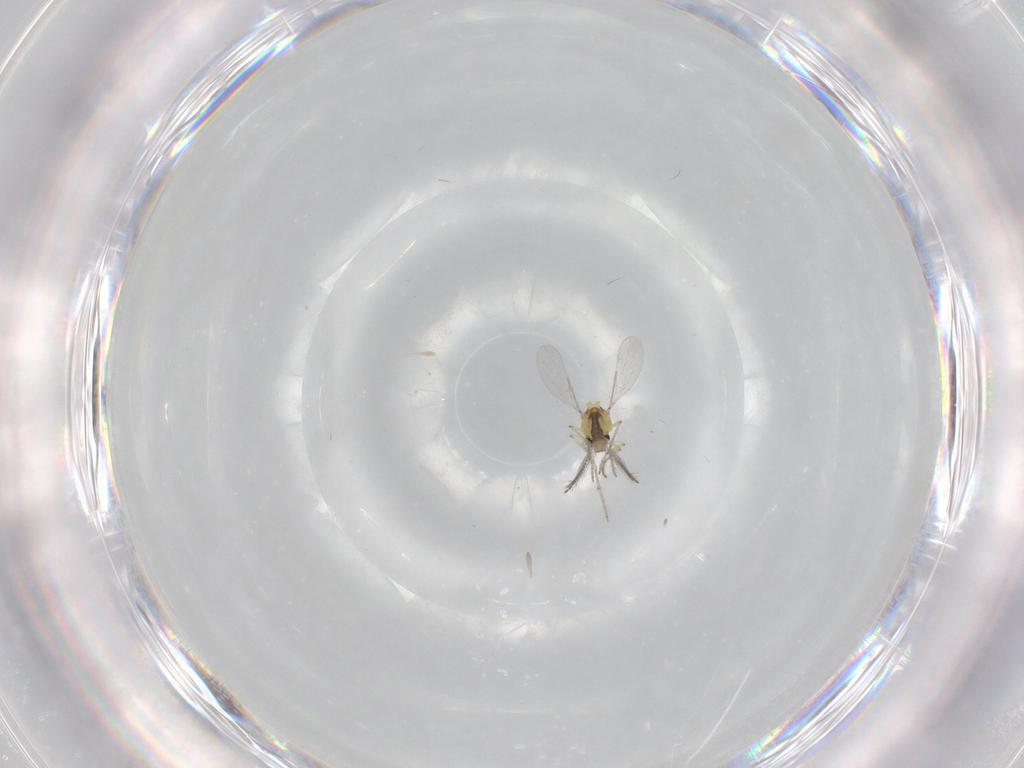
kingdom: Animalia
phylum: Arthropoda
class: Insecta
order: Diptera
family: Ceratopogonidae
